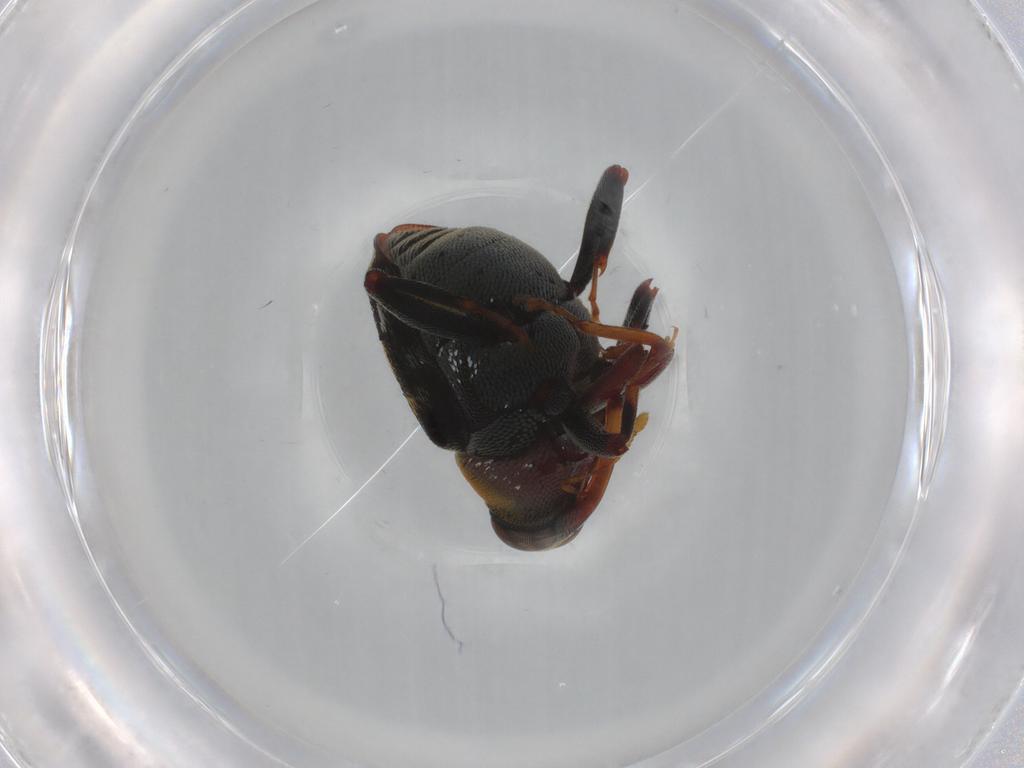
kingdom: Animalia
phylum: Arthropoda
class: Insecta
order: Coleoptera
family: Curculionidae
